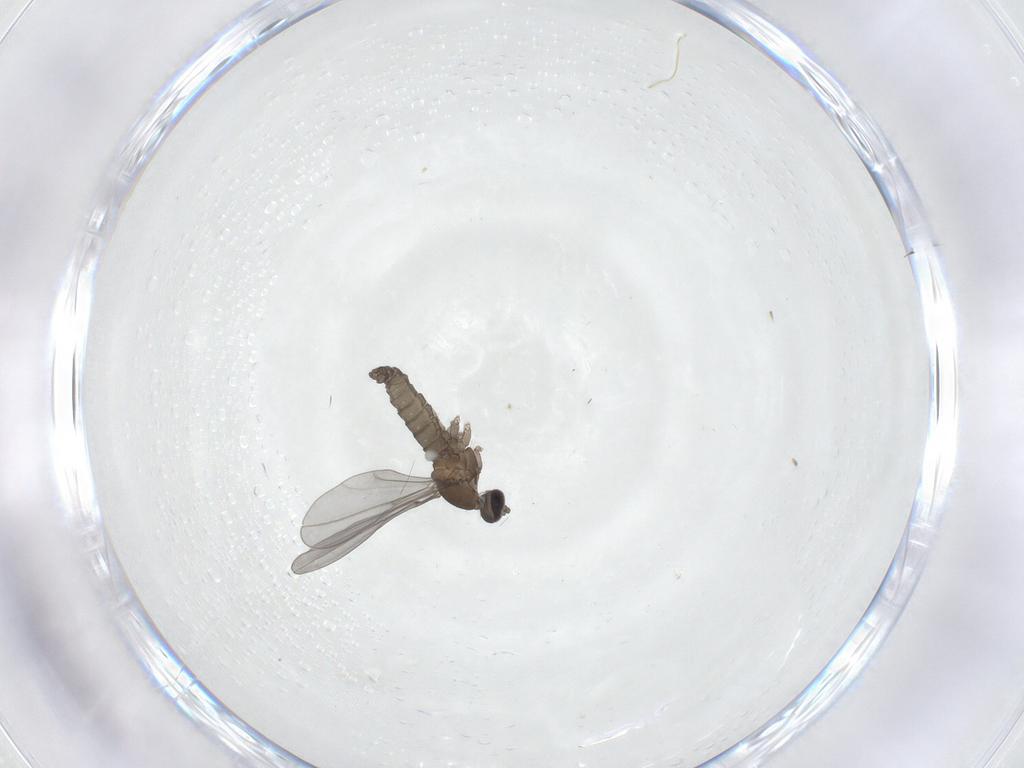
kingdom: Animalia
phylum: Arthropoda
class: Insecta
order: Diptera
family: Cecidomyiidae
